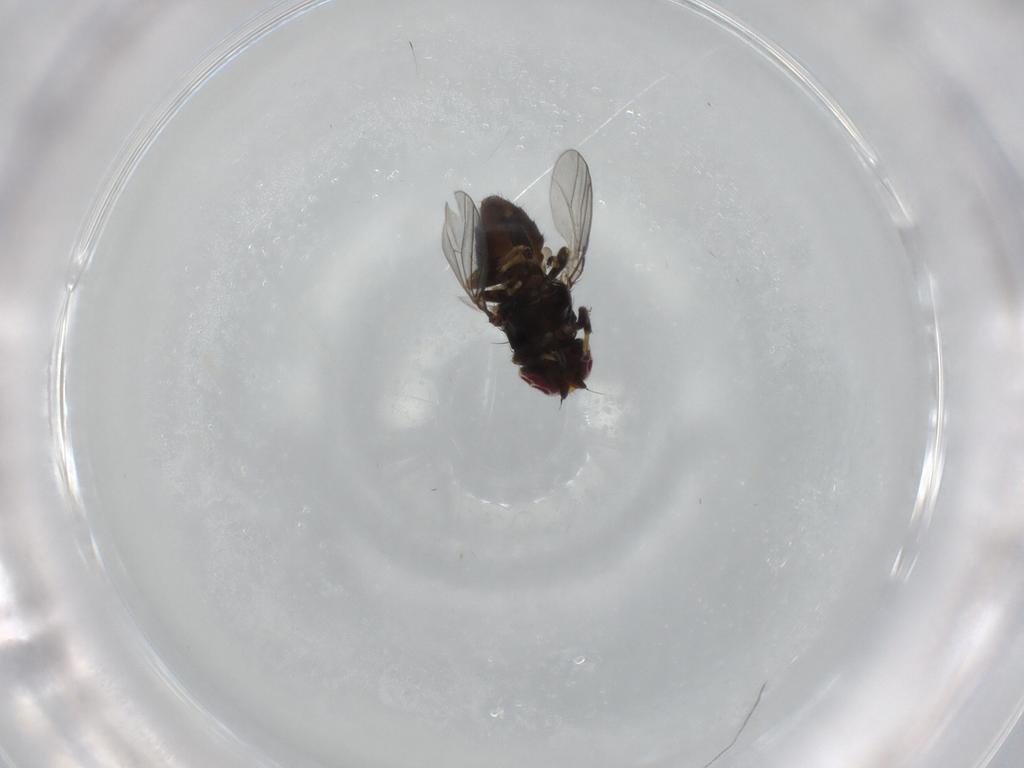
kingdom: Animalia
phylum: Arthropoda
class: Insecta
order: Diptera
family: Chloropidae
